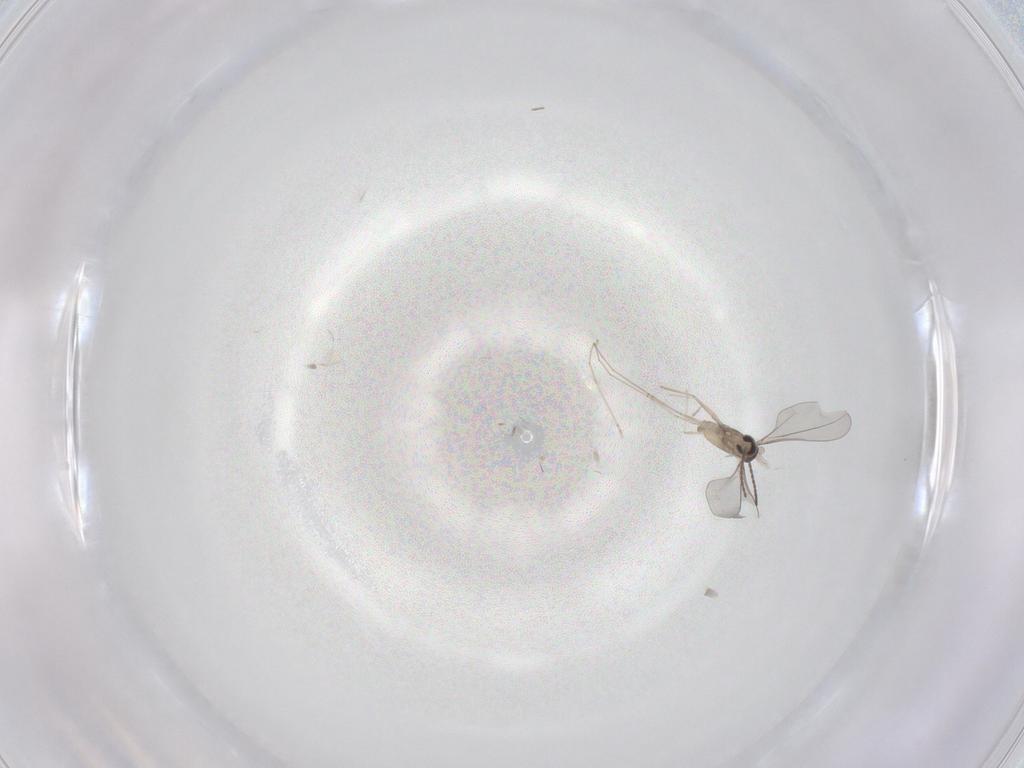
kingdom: Animalia
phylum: Arthropoda
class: Insecta
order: Diptera
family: Cecidomyiidae
